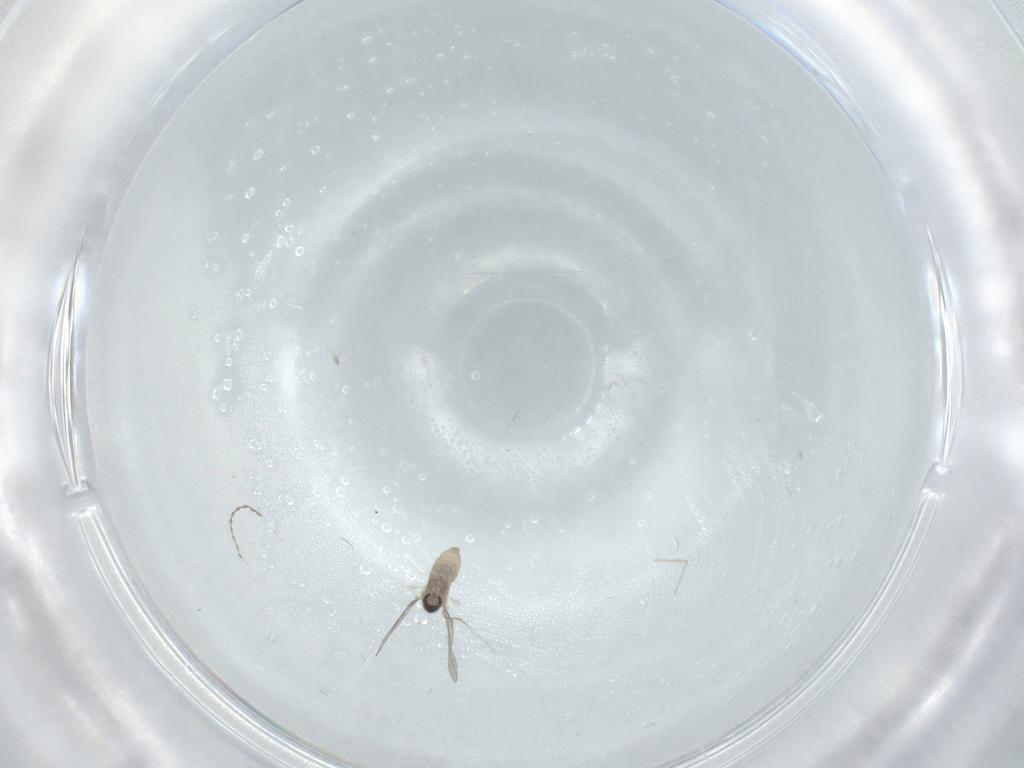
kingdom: Animalia
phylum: Arthropoda
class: Insecta
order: Diptera
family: Cecidomyiidae
